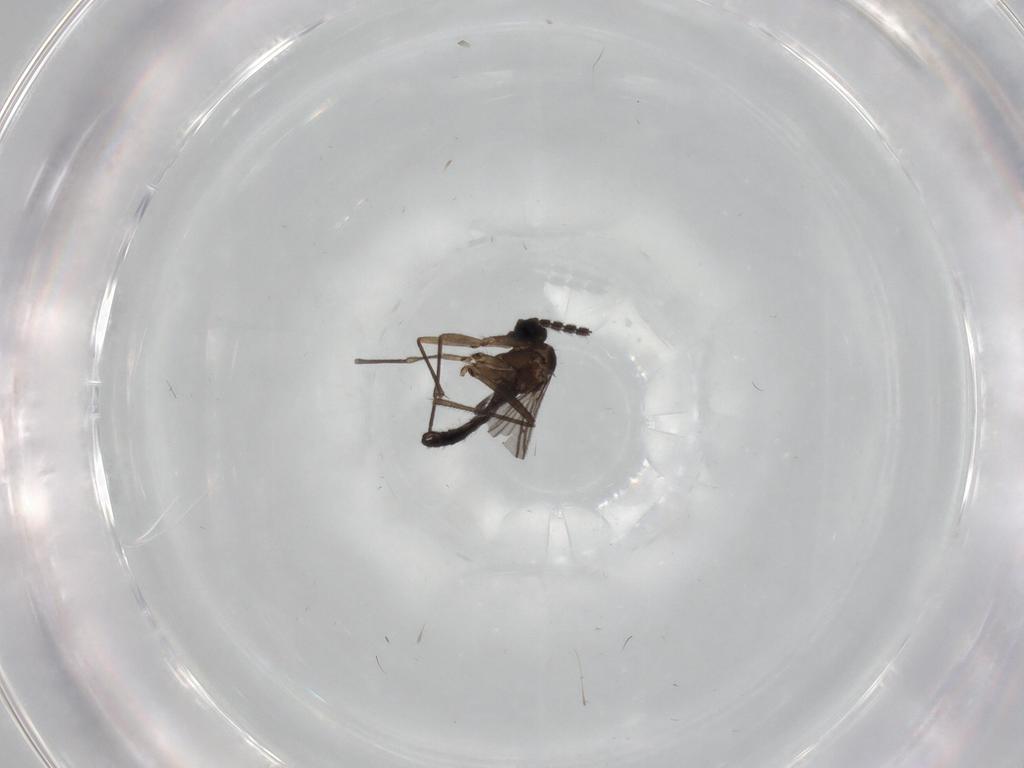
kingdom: Animalia
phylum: Arthropoda
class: Insecta
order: Diptera
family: Sciaridae
